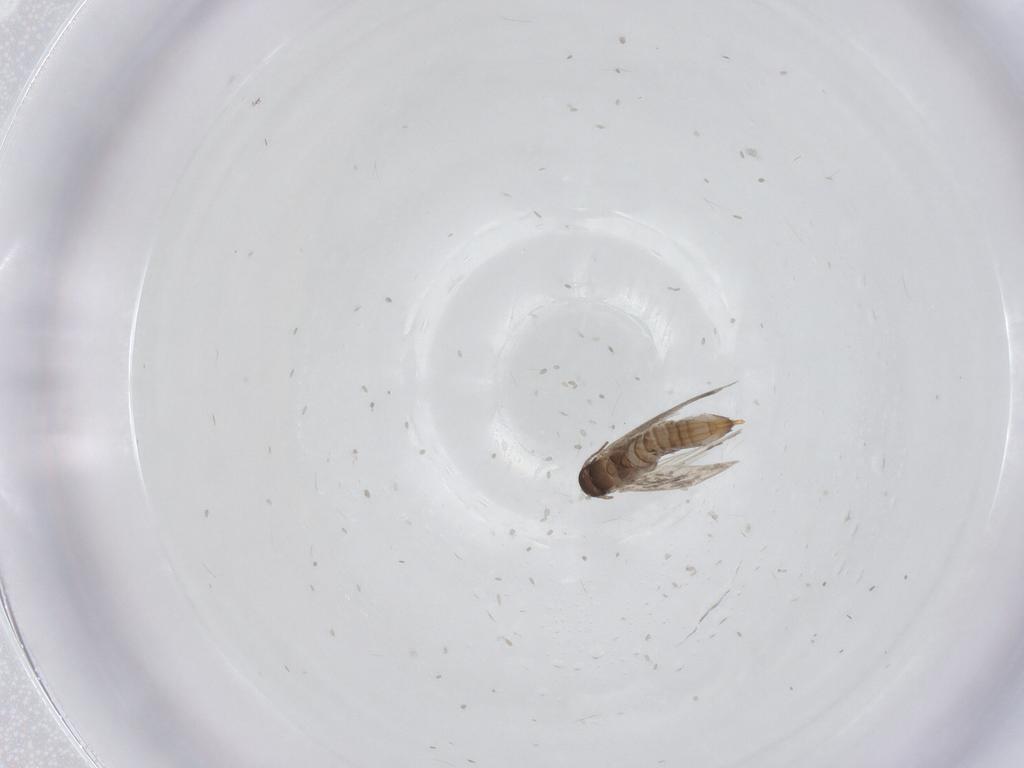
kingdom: Animalia
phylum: Arthropoda
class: Insecta
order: Lepidoptera
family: Heliozelidae
